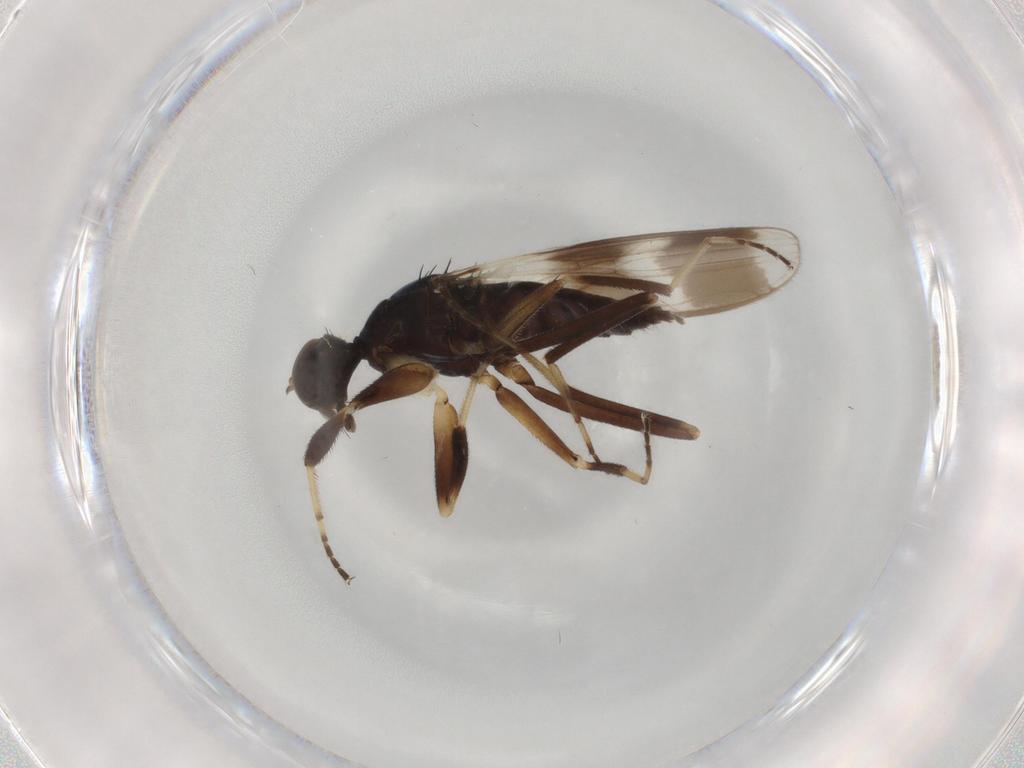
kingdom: Animalia
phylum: Arthropoda
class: Insecta
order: Diptera
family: Hybotidae
